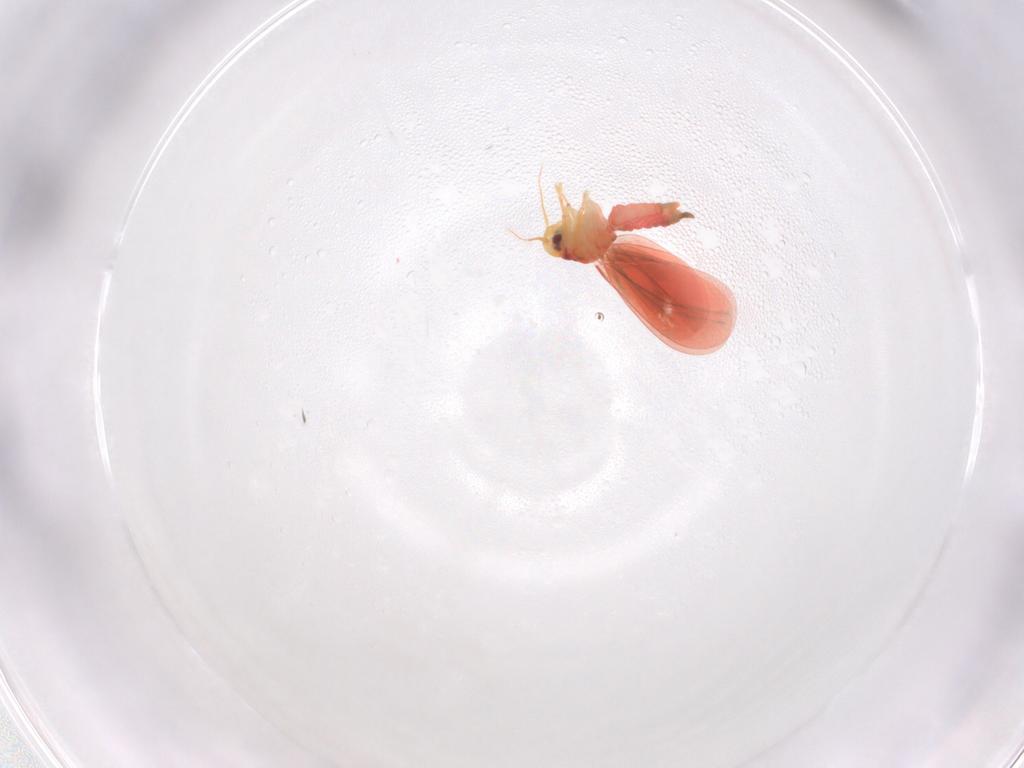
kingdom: Animalia
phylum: Arthropoda
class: Insecta
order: Hemiptera
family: Aleyrodidae
